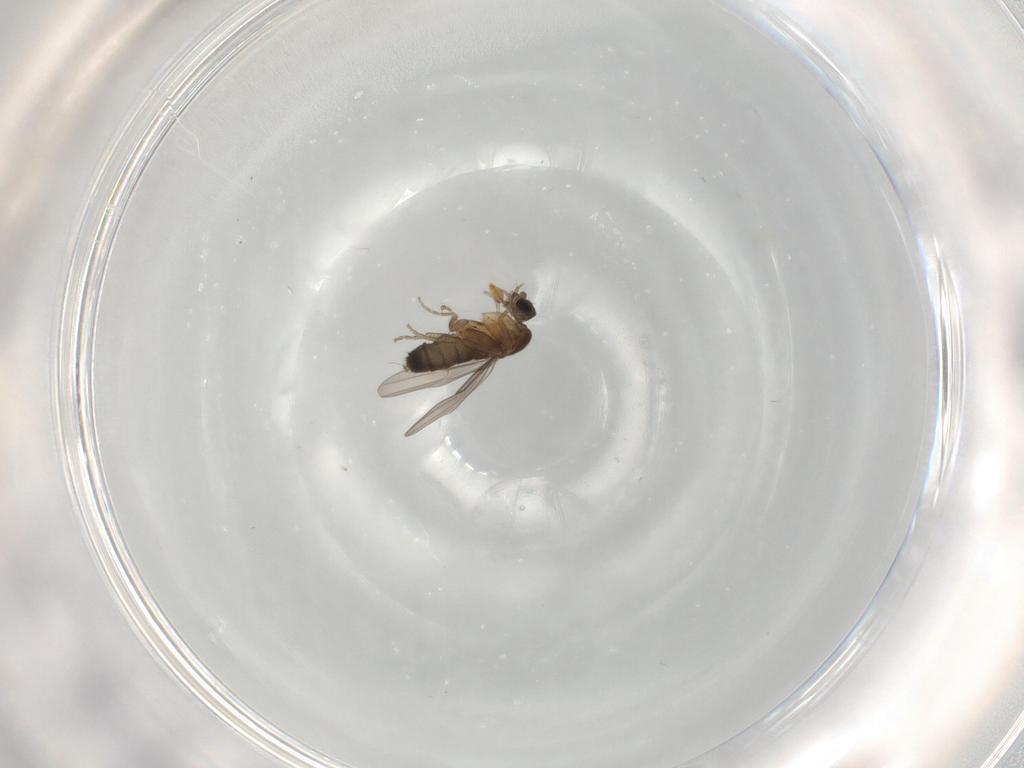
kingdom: Animalia
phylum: Arthropoda
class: Insecta
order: Diptera
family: Phoridae
